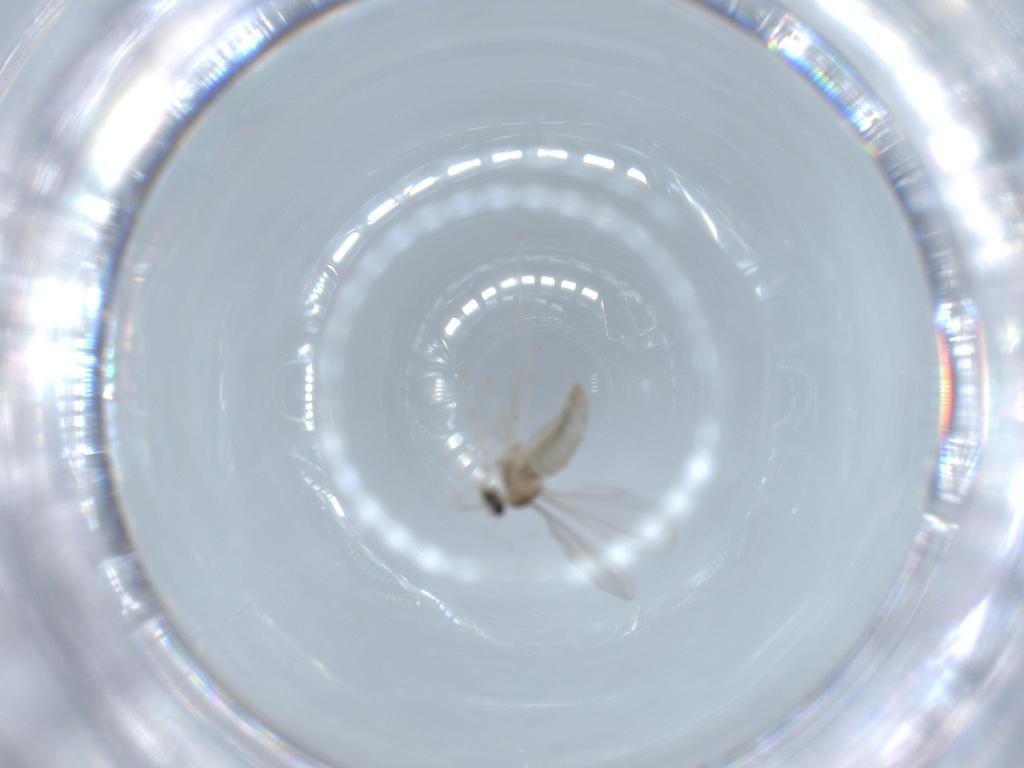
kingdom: Animalia
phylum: Arthropoda
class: Insecta
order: Diptera
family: Cecidomyiidae
